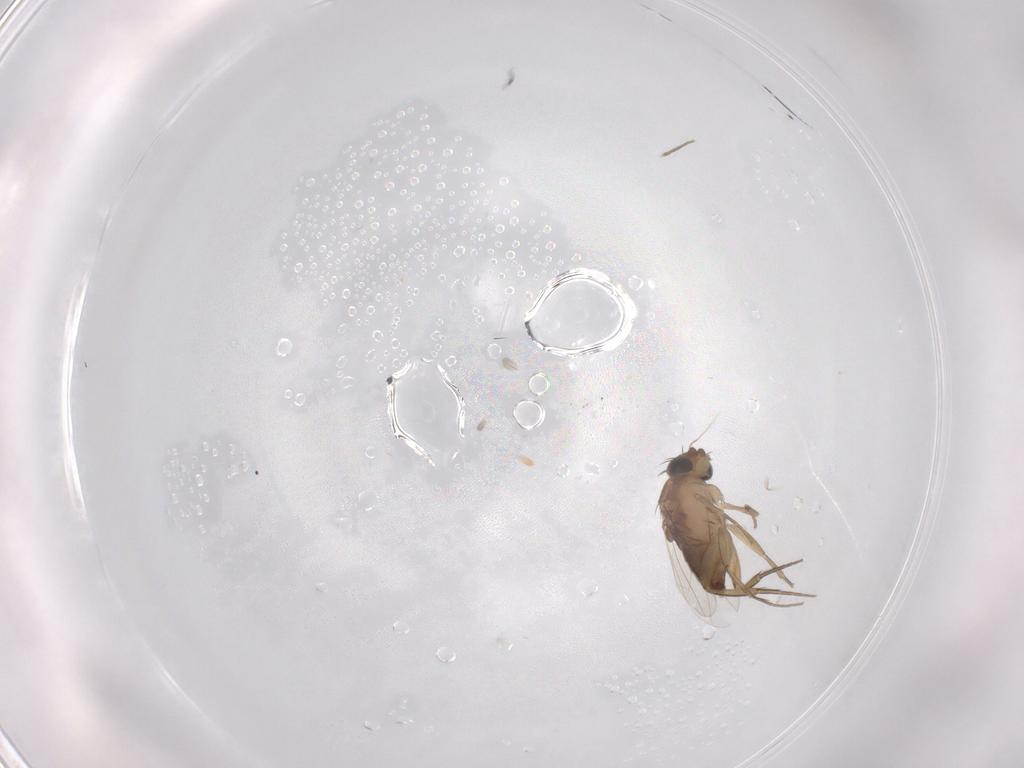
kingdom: Animalia
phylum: Arthropoda
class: Insecta
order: Diptera
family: Phoridae
